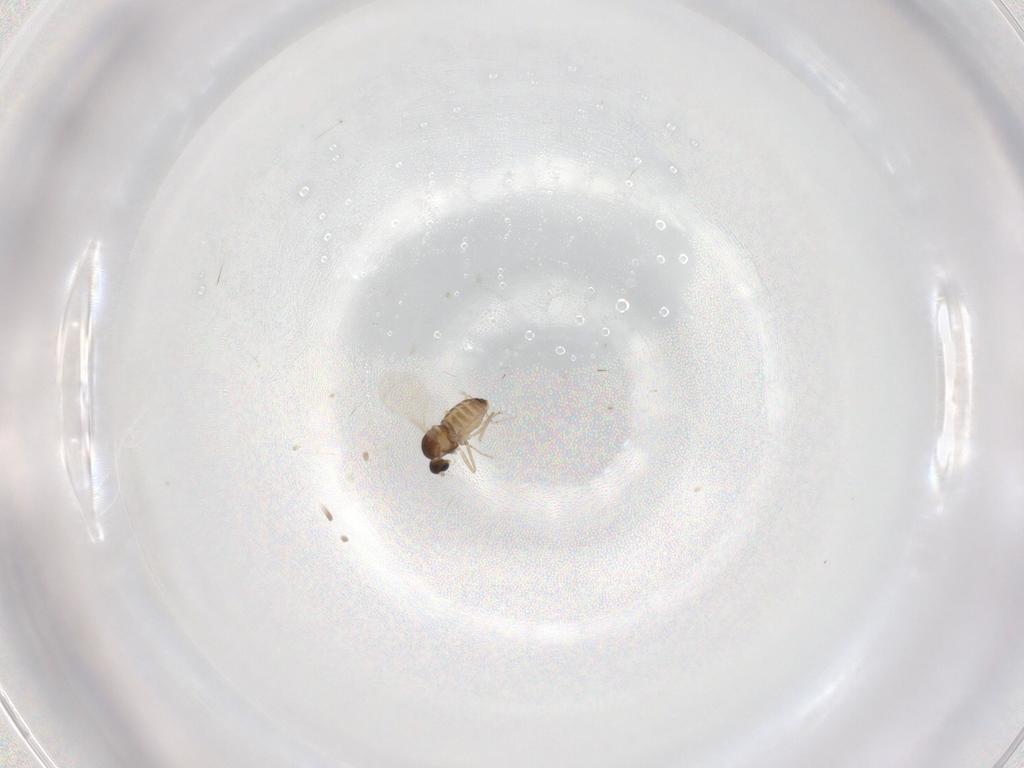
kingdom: Animalia
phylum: Arthropoda
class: Insecta
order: Diptera
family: Cecidomyiidae
